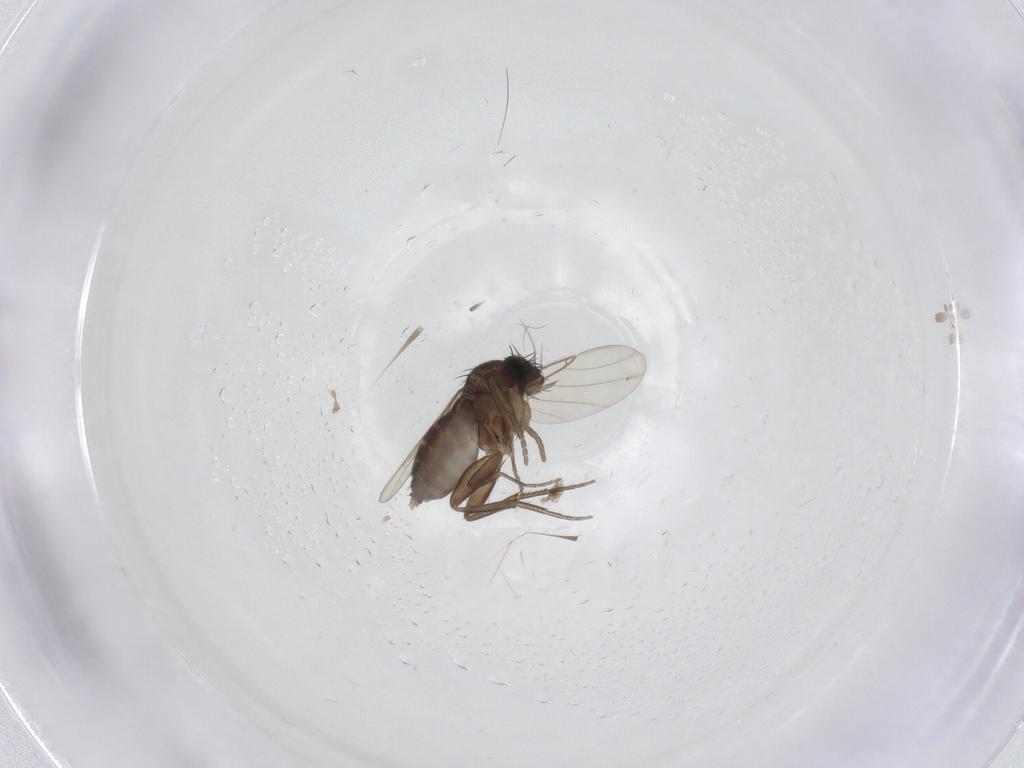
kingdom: Animalia
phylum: Arthropoda
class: Insecta
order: Diptera
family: Phoridae
